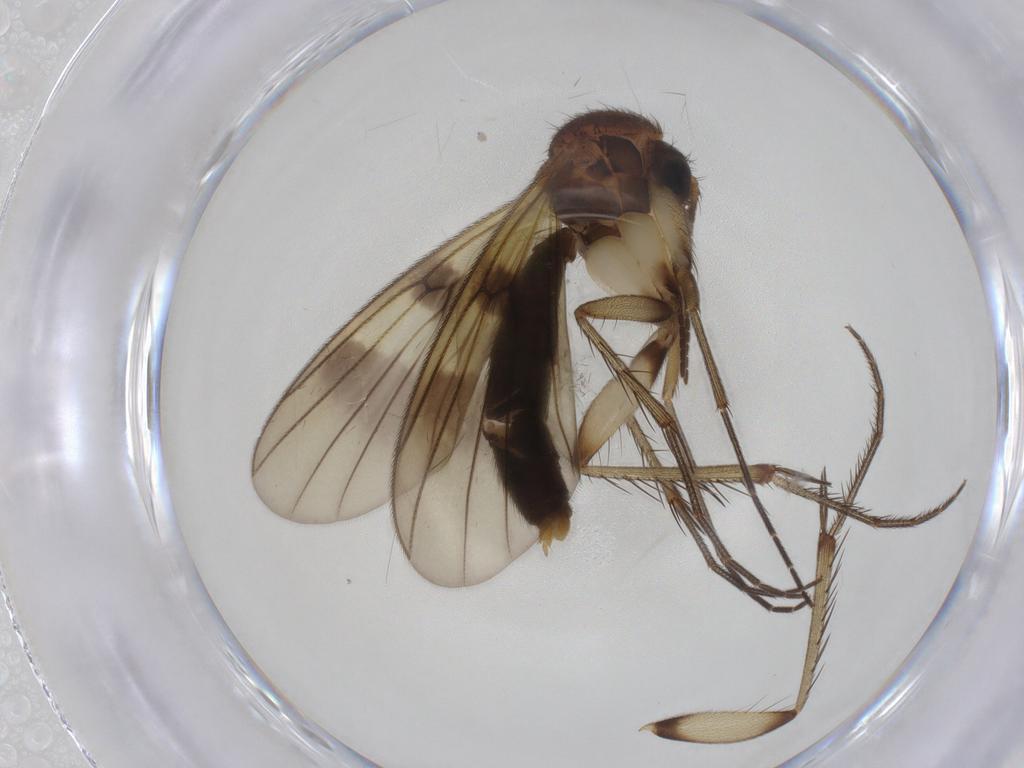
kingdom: Animalia
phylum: Arthropoda
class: Insecta
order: Diptera
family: Mycetophilidae
